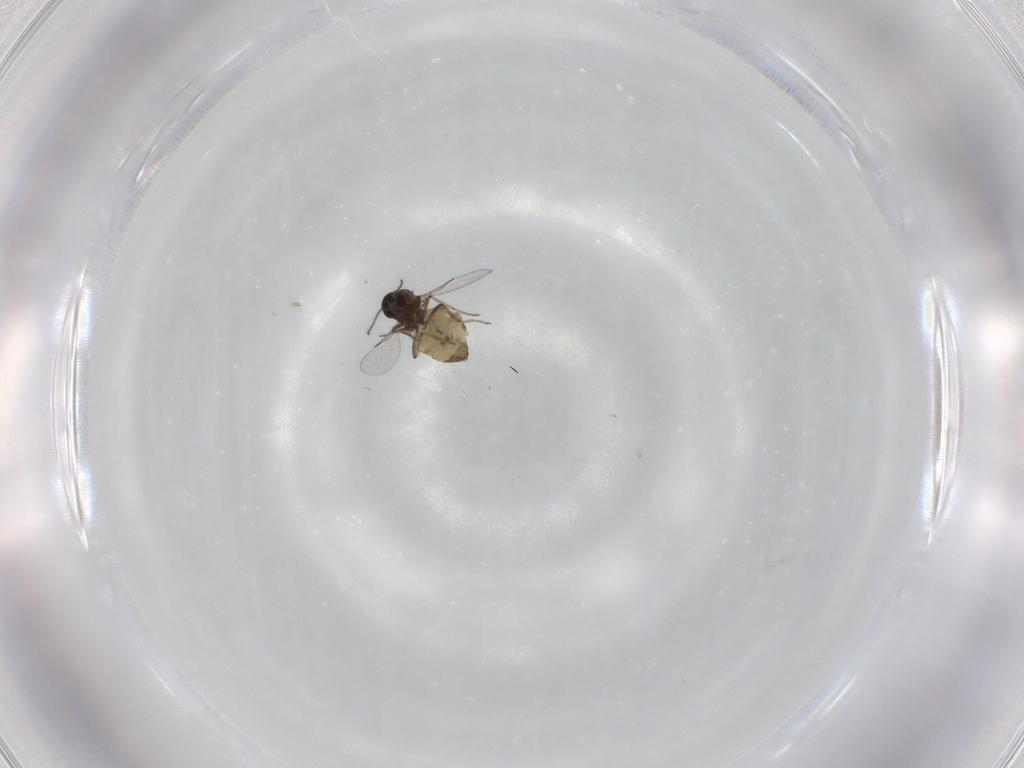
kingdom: Animalia
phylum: Arthropoda
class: Insecta
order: Diptera
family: Ceratopogonidae
